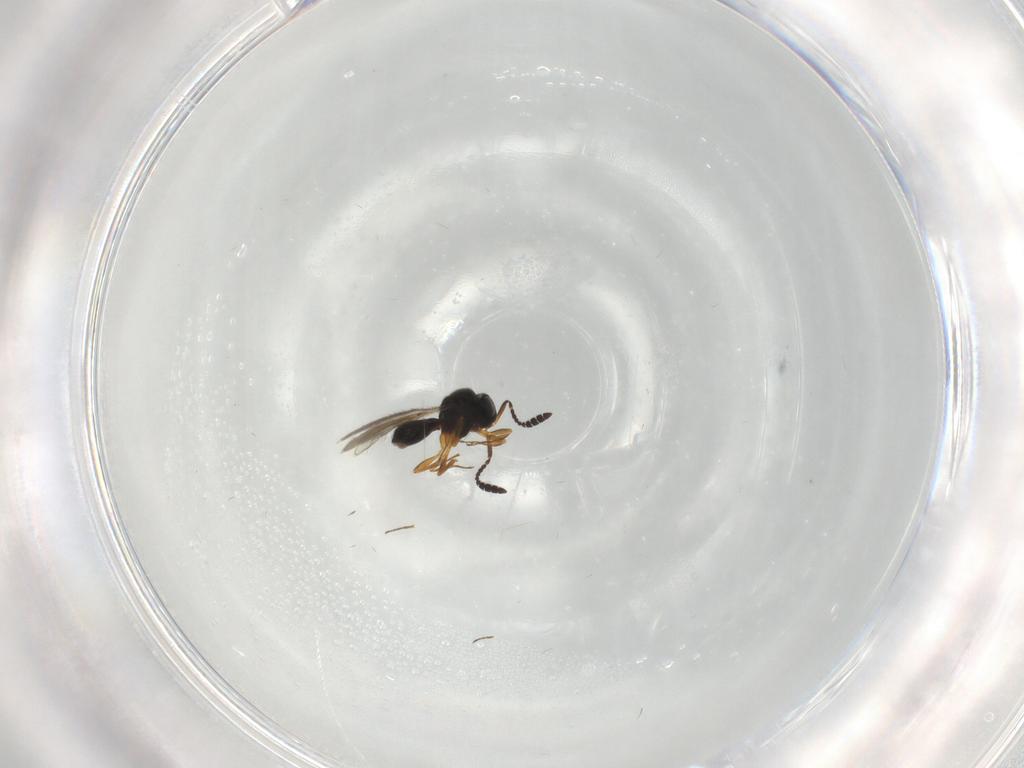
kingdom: Animalia
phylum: Arthropoda
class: Insecta
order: Hymenoptera
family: Scelionidae
